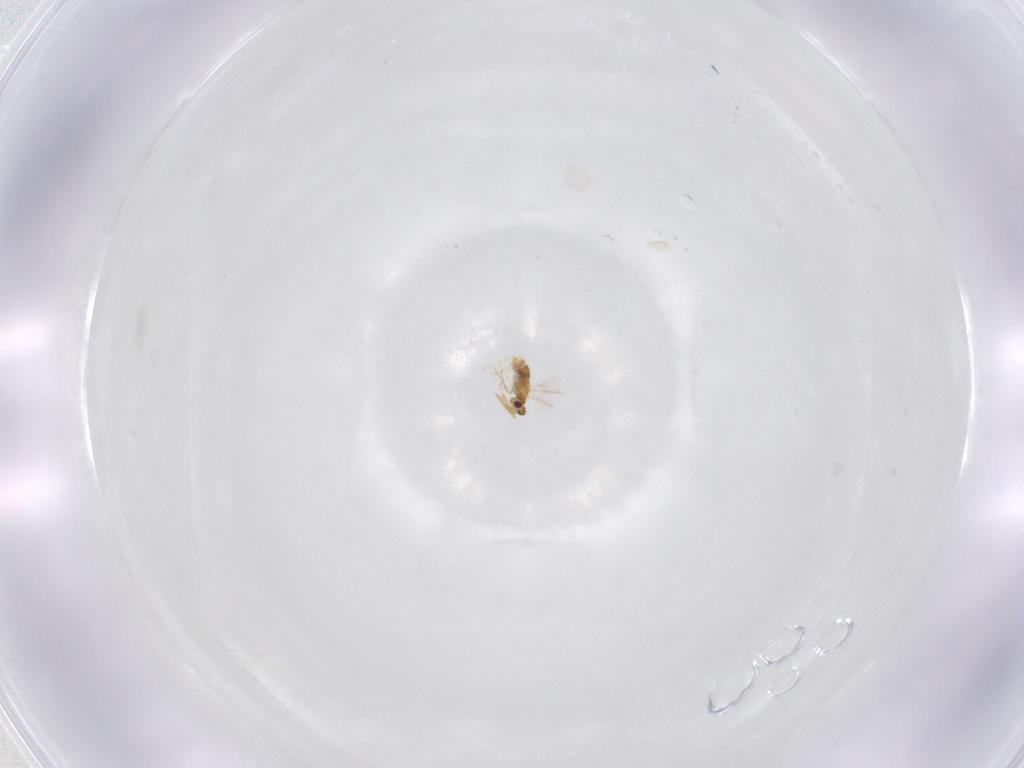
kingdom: Animalia
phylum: Arthropoda
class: Insecta
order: Hymenoptera
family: Aphelinidae
